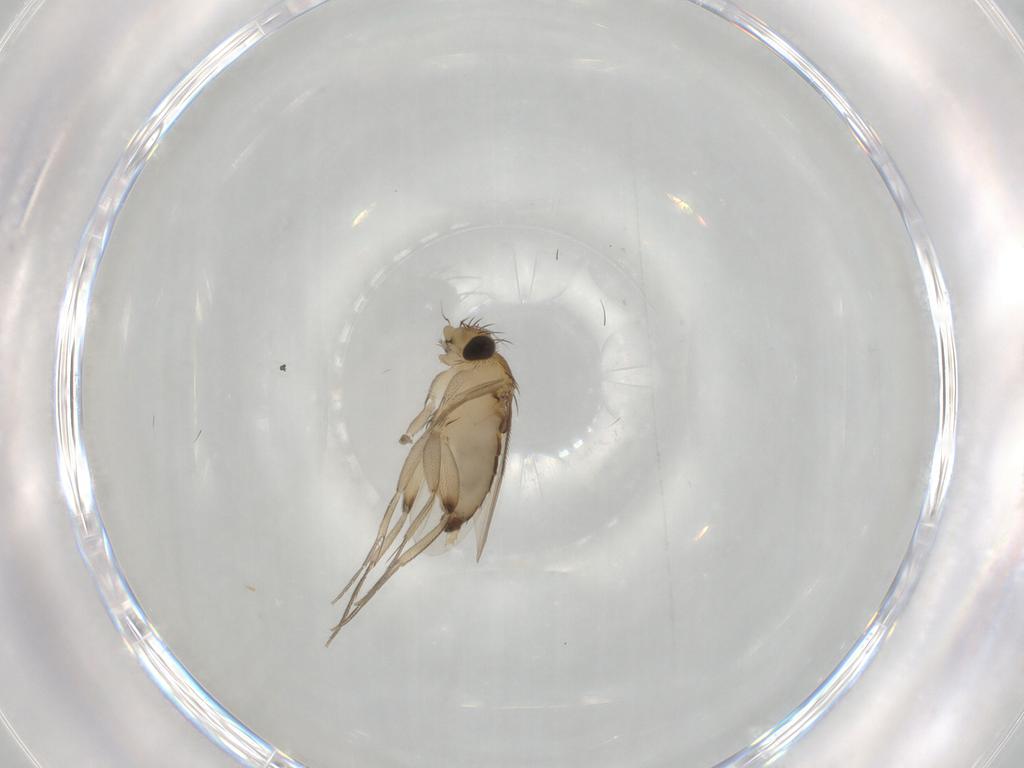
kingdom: Animalia
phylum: Arthropoda
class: Insecta
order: Diptera
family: Phoridae
